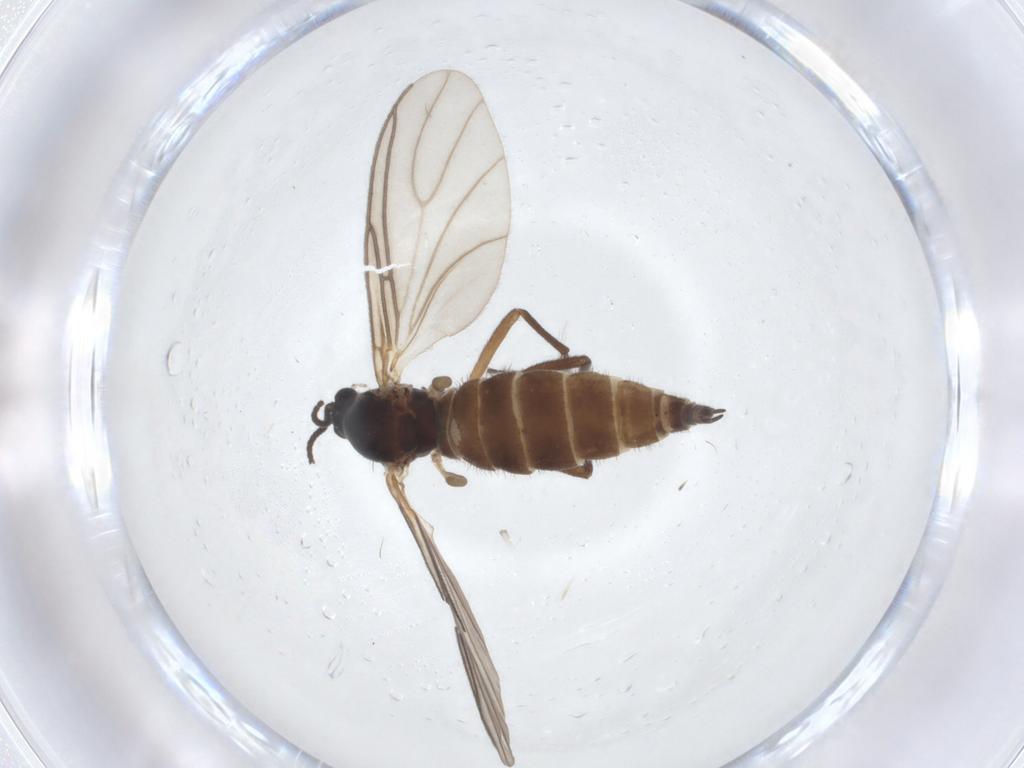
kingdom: Animalia
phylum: Arthropoda
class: Insecta
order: Diptera
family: Sciaridae
